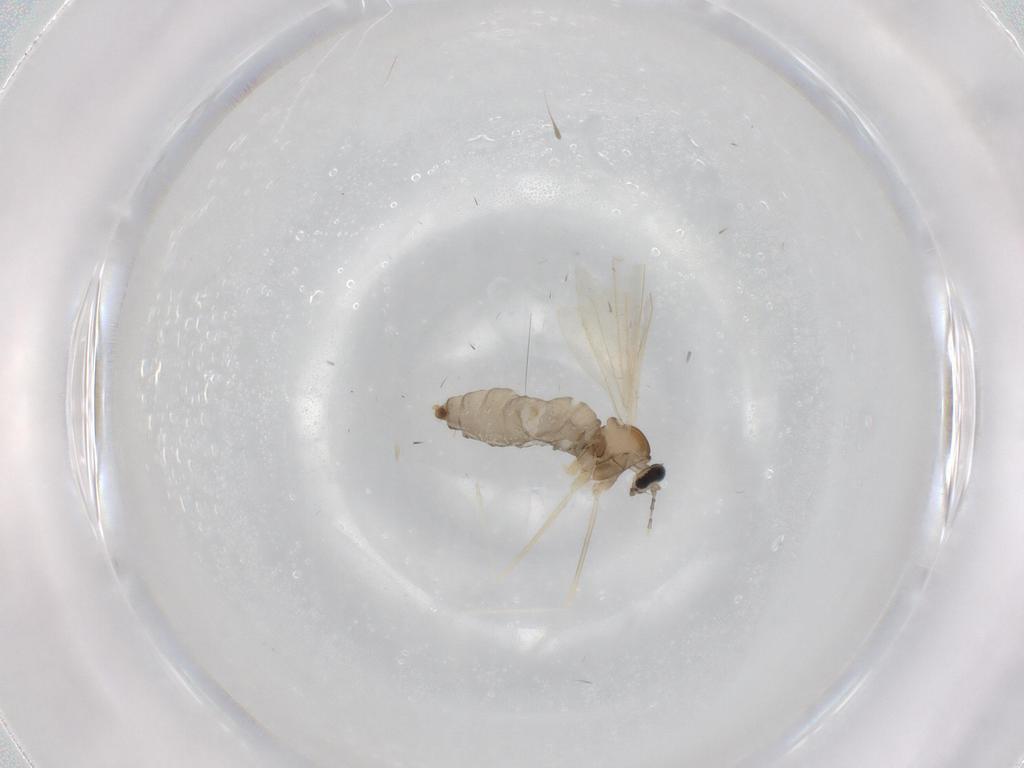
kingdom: Animalia
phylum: Arthropoda
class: Insecta
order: Diptera
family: Cecidomyiidae
